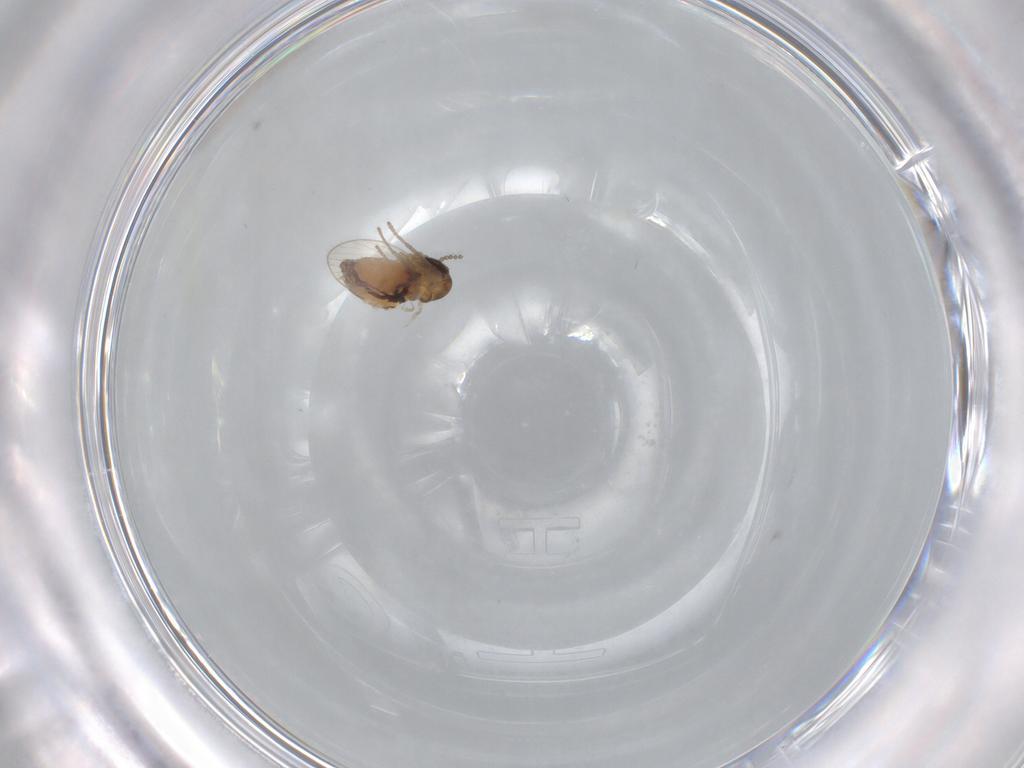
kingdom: Animalia
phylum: Arthropoda
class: Insecta
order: Diptera
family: Psychodidae
